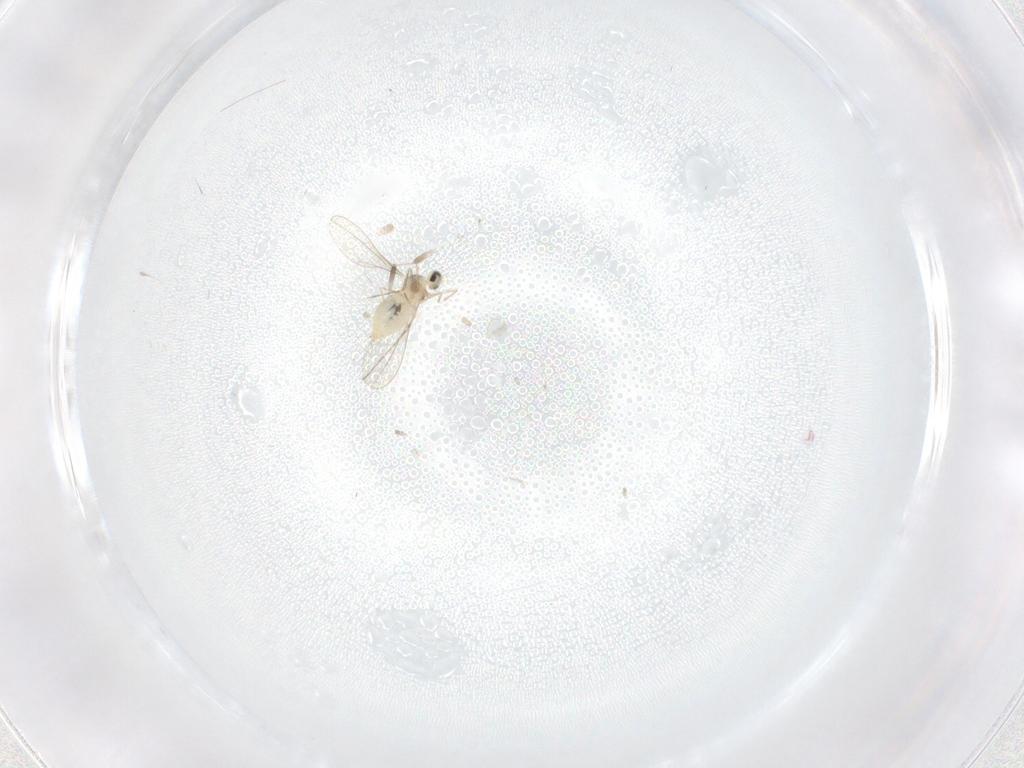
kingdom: Animalia
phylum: Arthropoda
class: Insecta
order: Diptera
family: Cecidomyiidae
